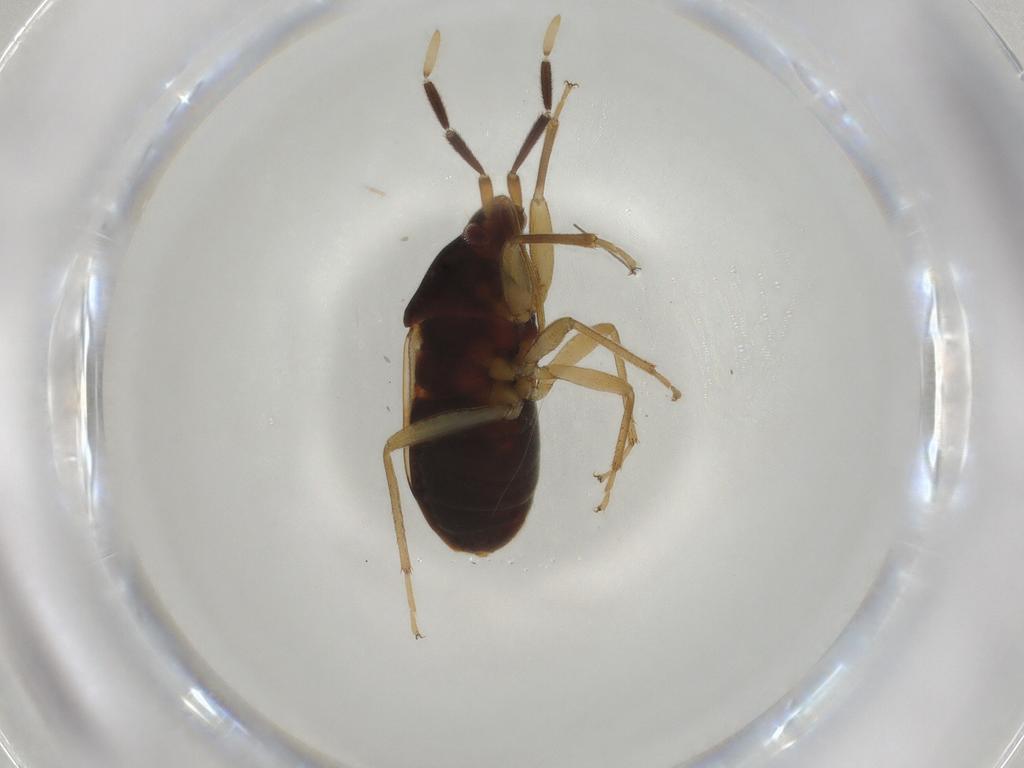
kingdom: Animalia
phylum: Arthropoda
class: Insecta
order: Hemiptera
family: Rhyparochromidae
